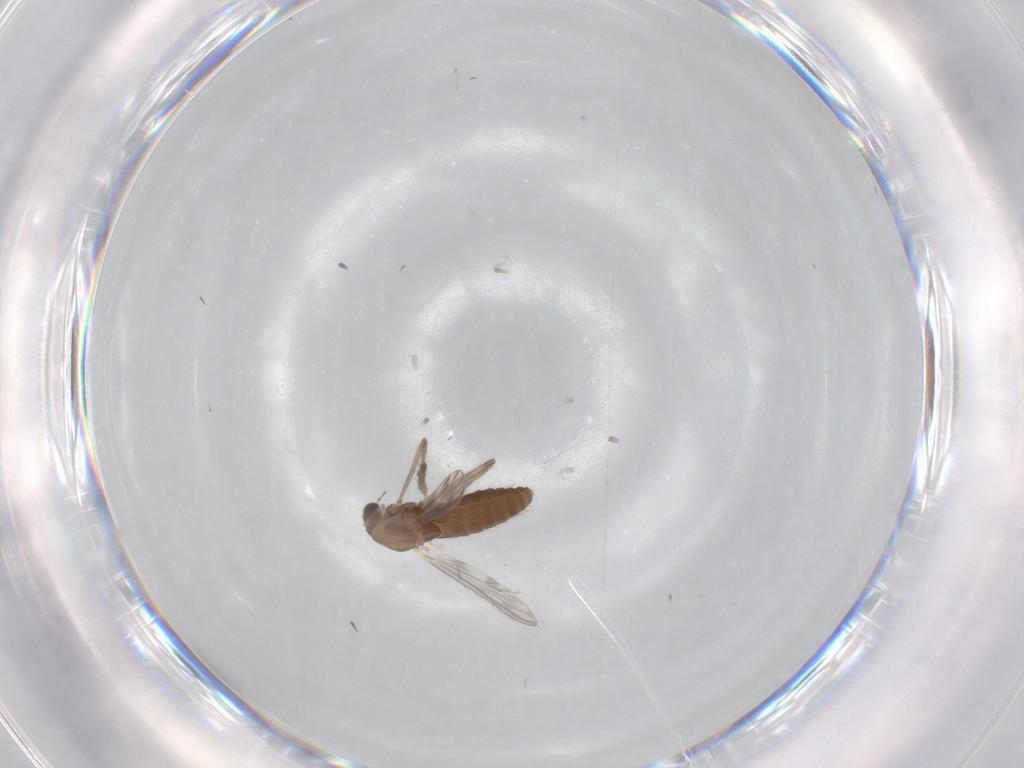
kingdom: Animalia
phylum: Arthropoda
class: Insecta
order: Diptera
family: Chironomidae
